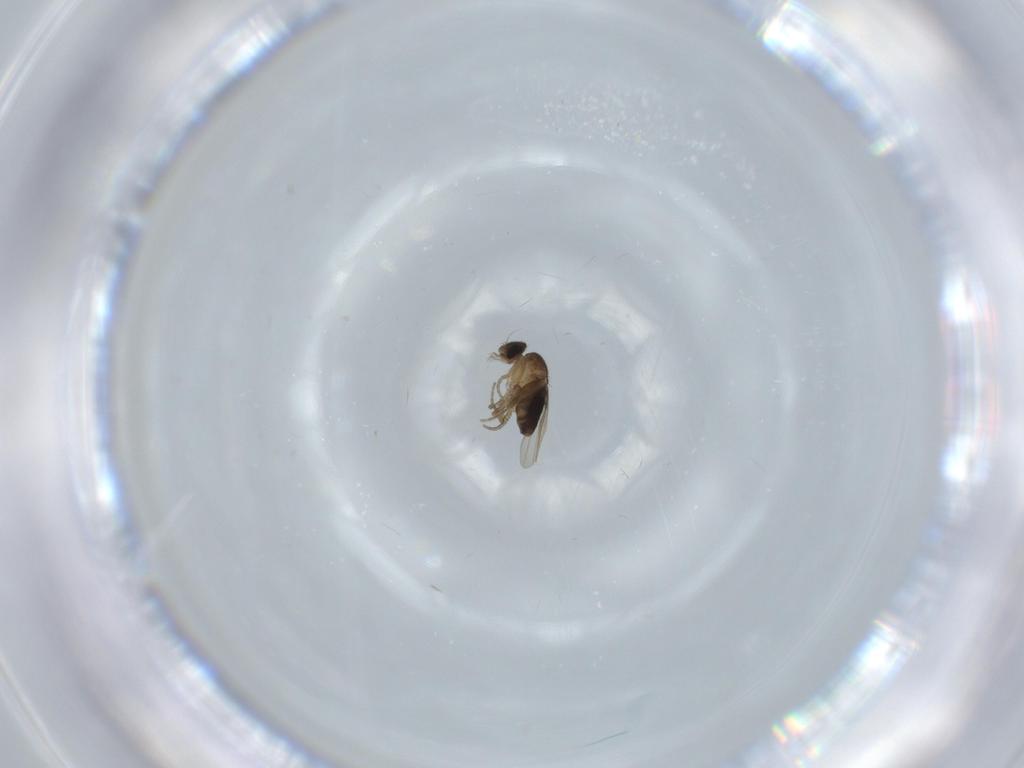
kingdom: Animalia
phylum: Arthropoda
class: Insecta
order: Diptera
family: Phoridae
